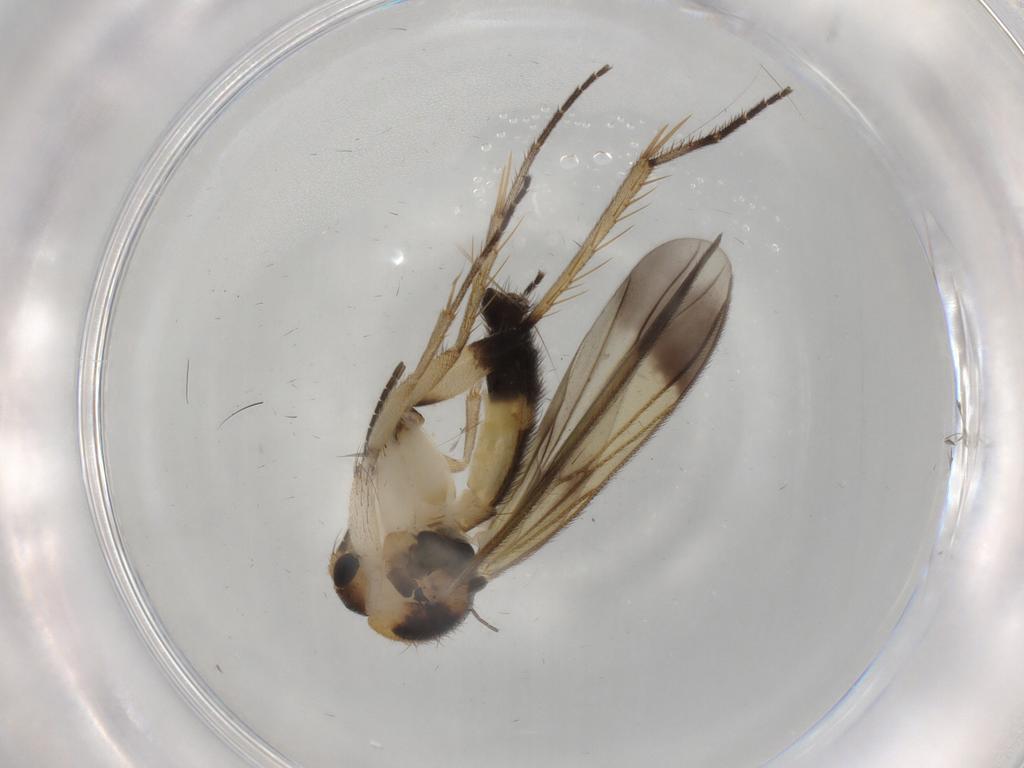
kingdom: Animalia
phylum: Arthropoda
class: Insecta
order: Diptera
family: Mycetophilidae
